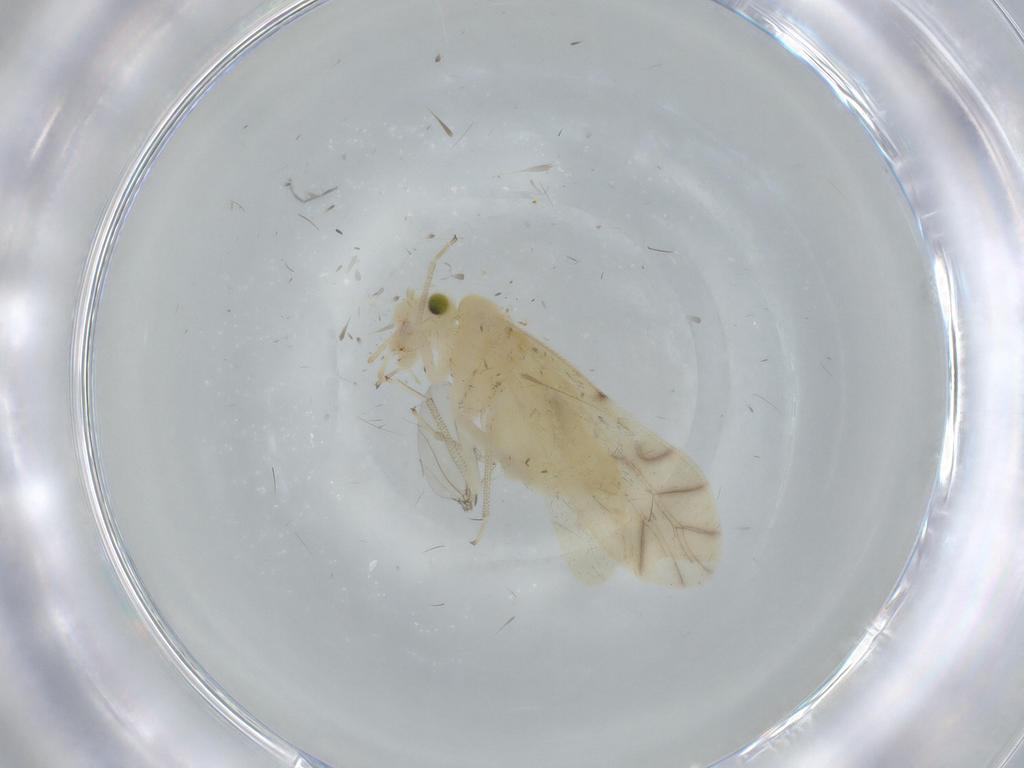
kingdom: Animalia
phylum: Arthropoda
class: Insecta
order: Psocodea
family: Caeciliusidae
